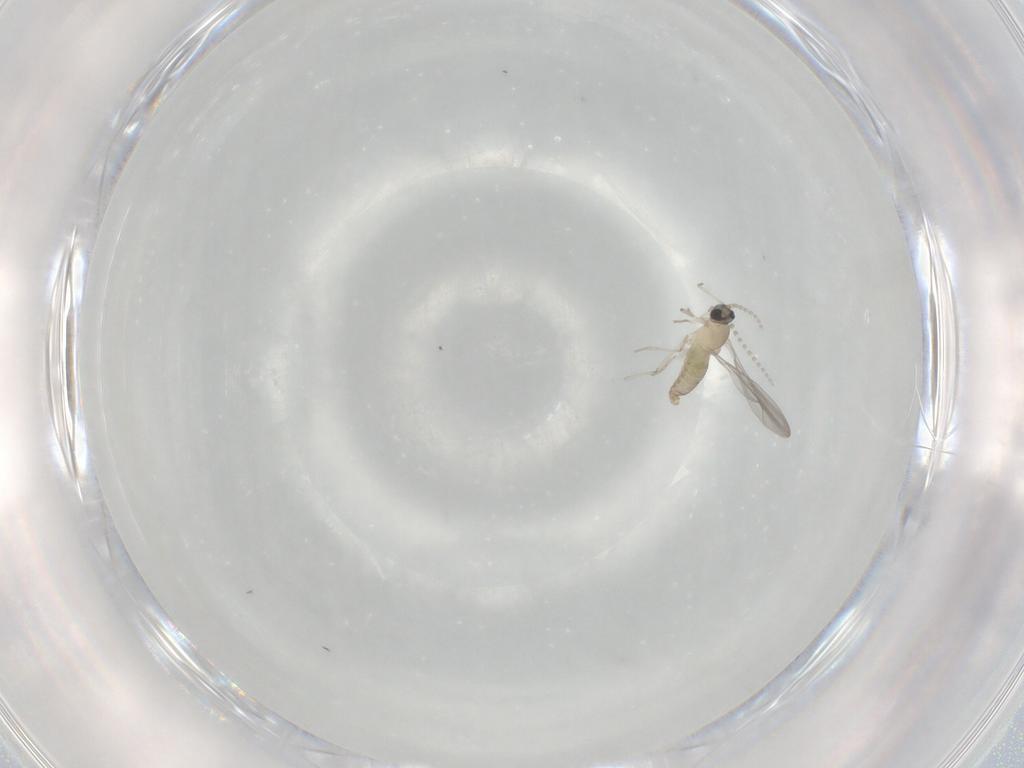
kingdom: Animalia
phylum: Arthropoda
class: Insecta
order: Diptera
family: Cecidomyiidae
